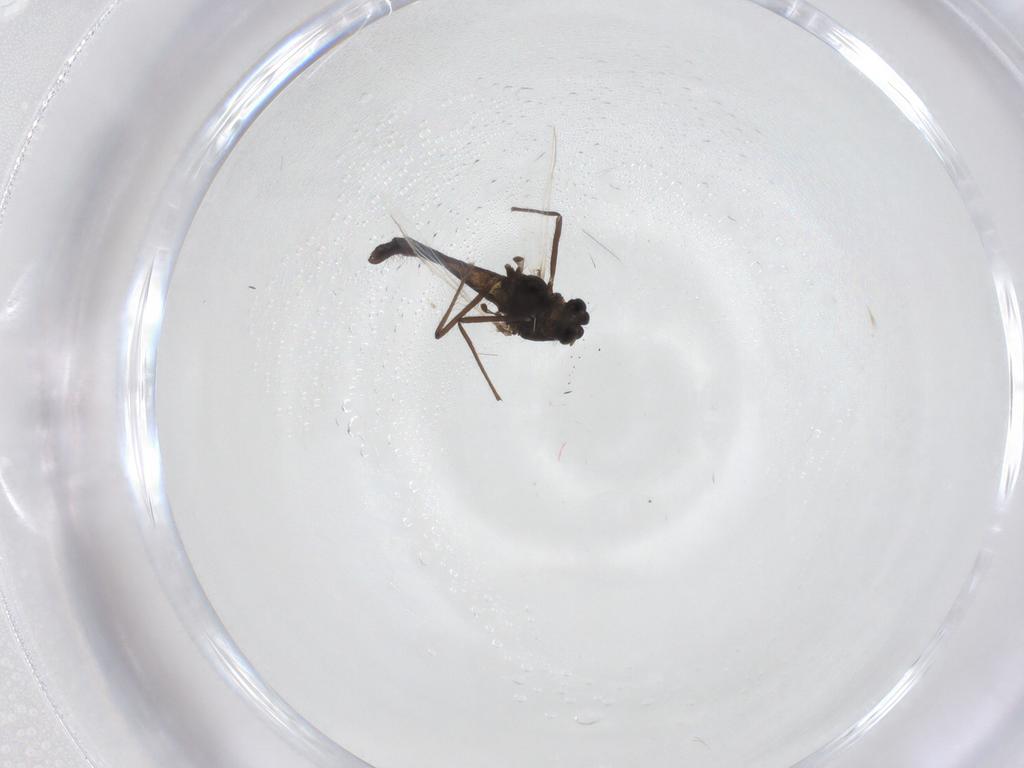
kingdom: Animalia
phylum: Arthropoda
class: Insecta
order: Diptera
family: Chironomidae
